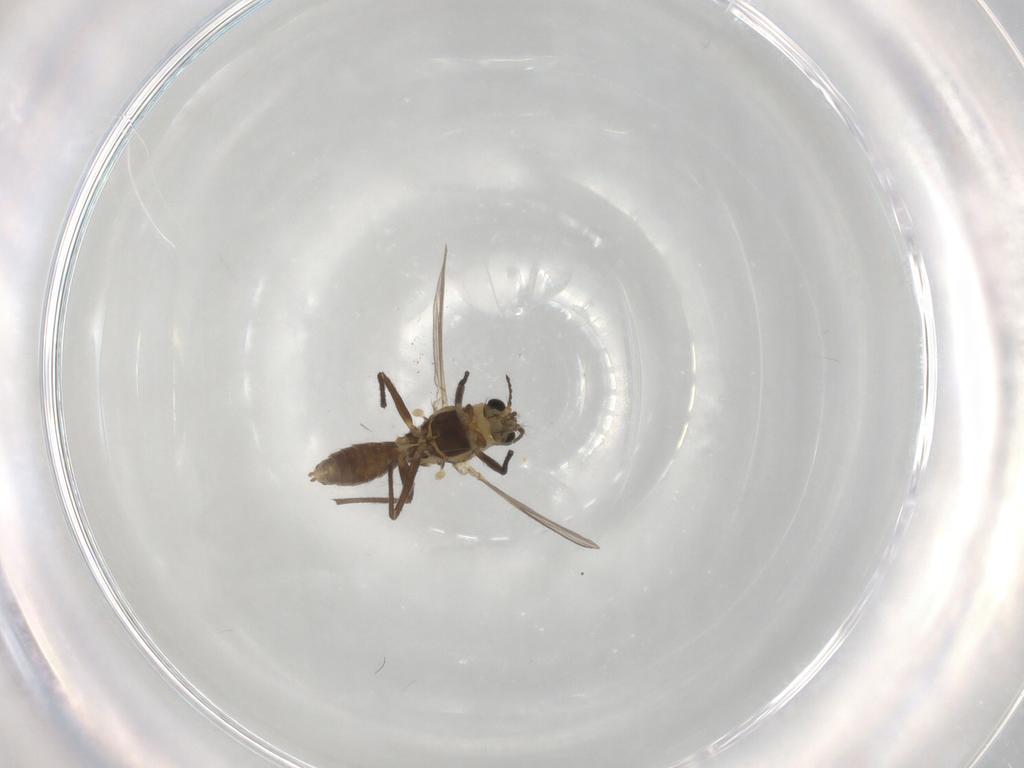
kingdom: Animalia
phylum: Arthropoda
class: Insecta
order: Diptera
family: Chironomidae
